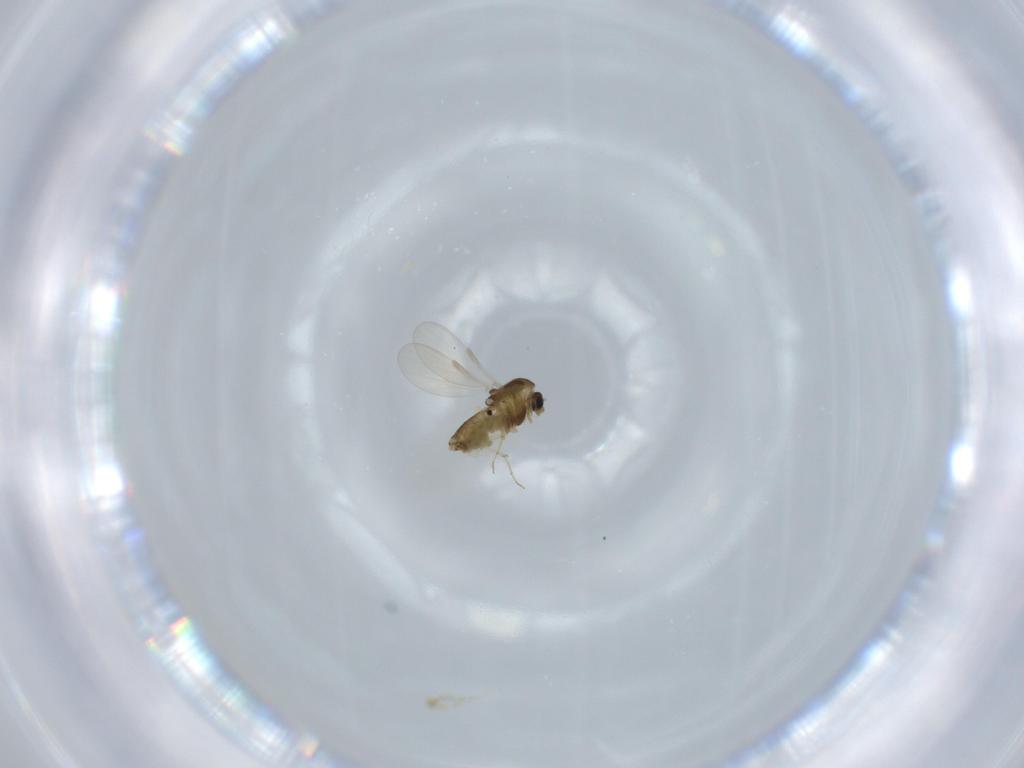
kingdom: Animalia
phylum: Arthropoda
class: Insecta
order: Diptera
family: Chironomidae
